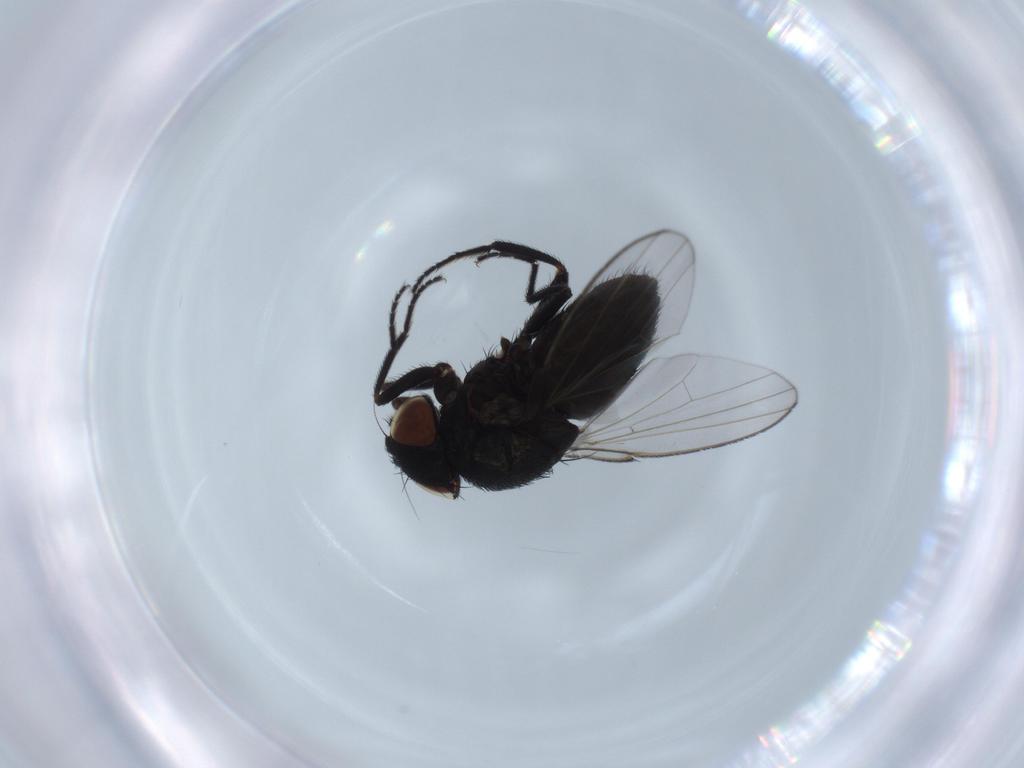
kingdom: Animalia
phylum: Arthropoda
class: Insecta
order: Diptera
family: Milichiidae
